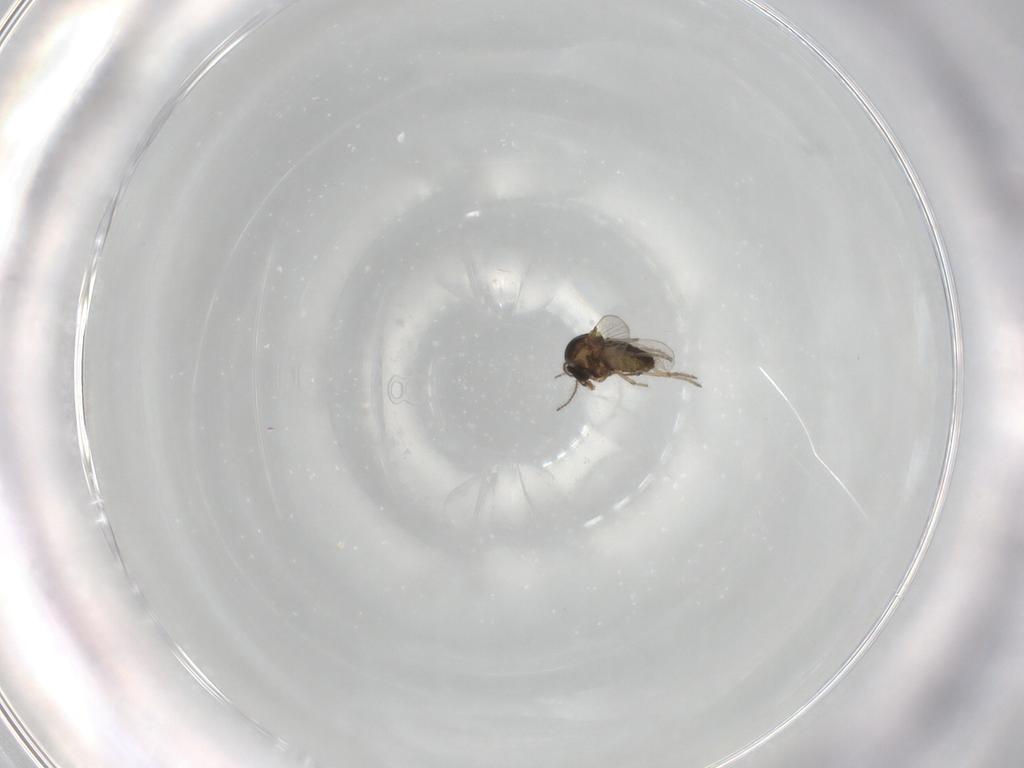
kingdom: Animalia
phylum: Arthropoda
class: Insecta
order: Diptera
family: Ceratopogonidae
